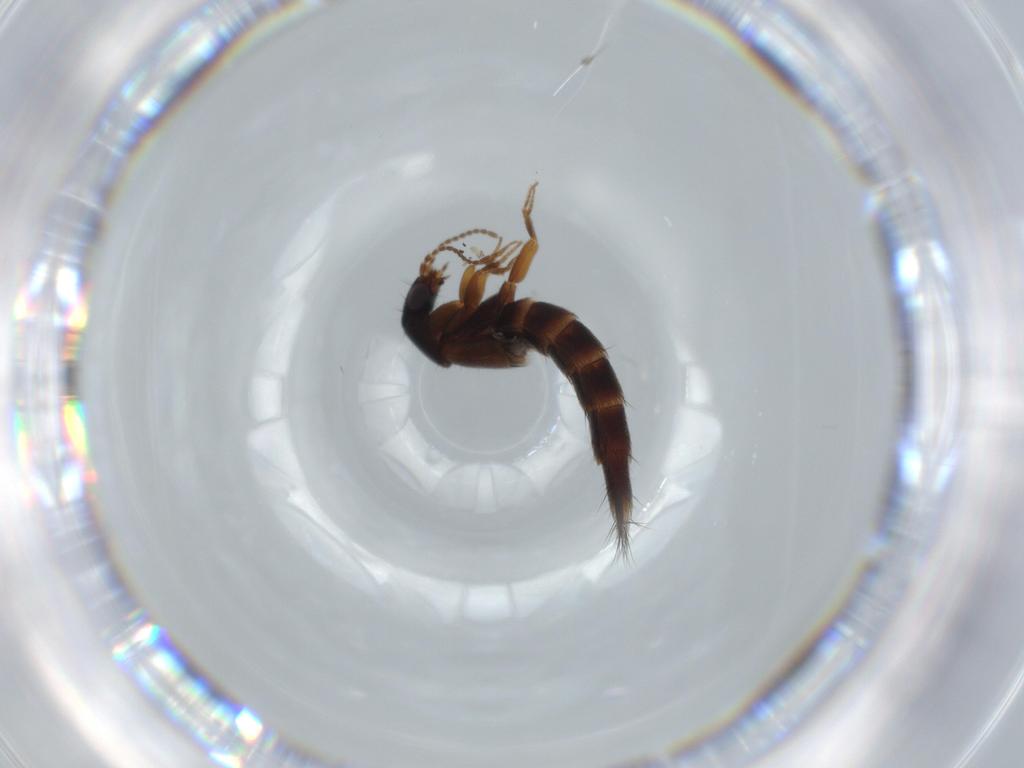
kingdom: Animalia
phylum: Arthropoda
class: Insecta
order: Coleoptera
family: Staphylinidae
